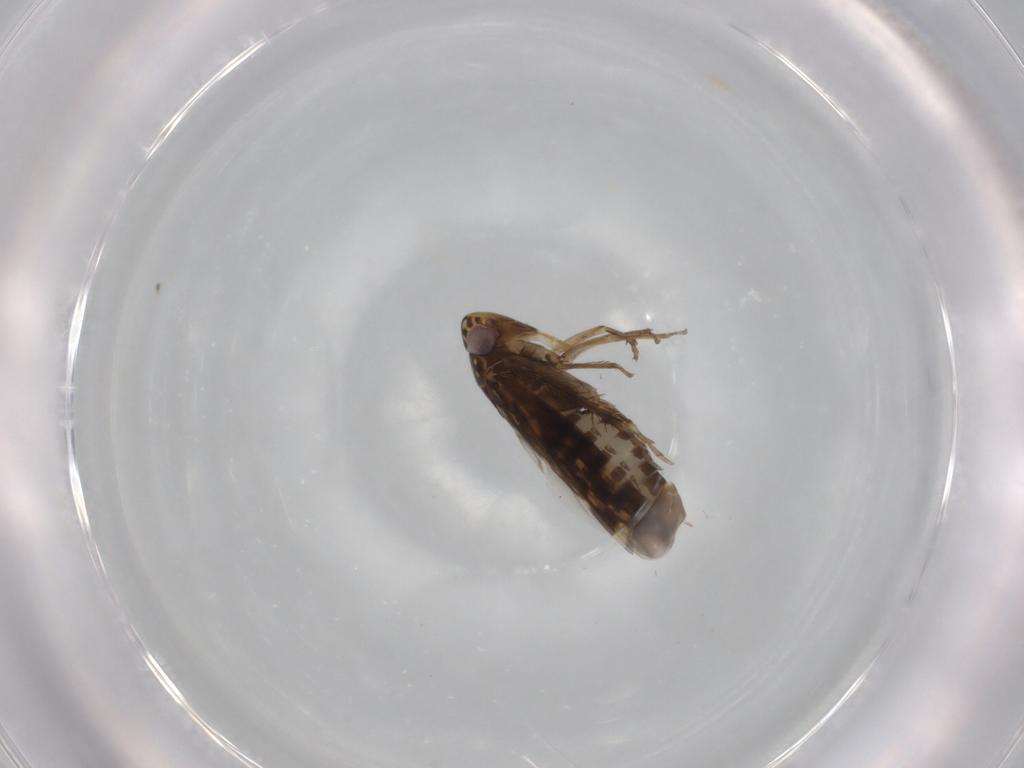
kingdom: Animalia
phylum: Arthropoda
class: Insecta
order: Hemiptera
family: Cicadellidae
